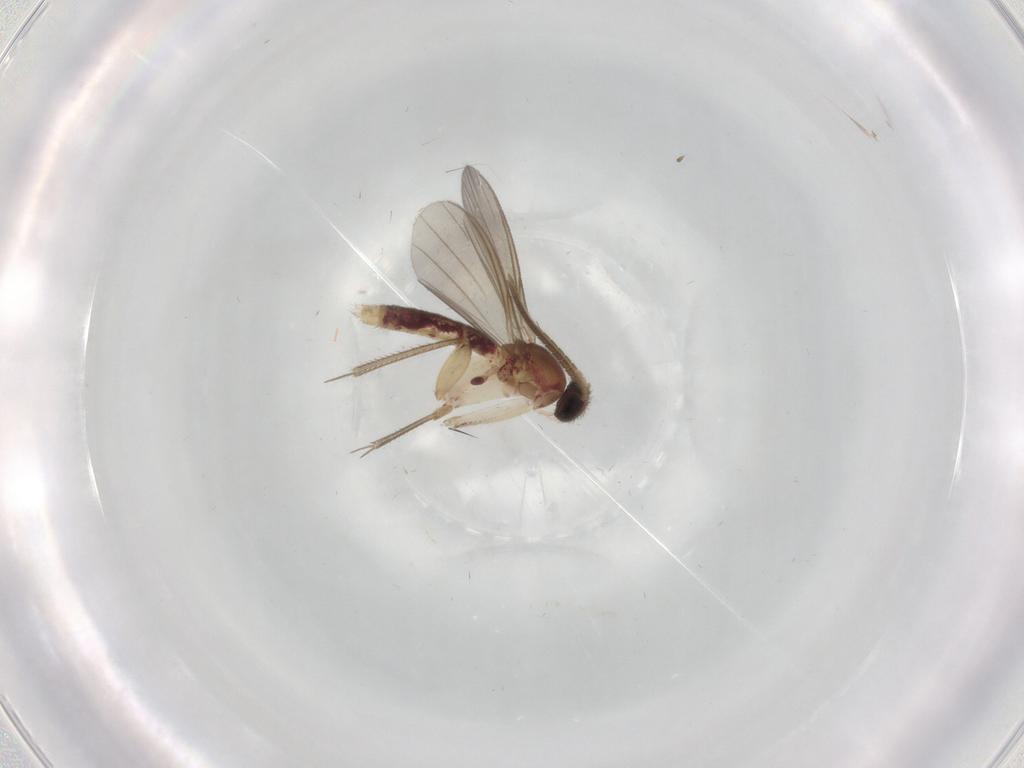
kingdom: Animalia
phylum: Arthropoda
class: Insecta
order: Diptera
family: Mycetophilidae
